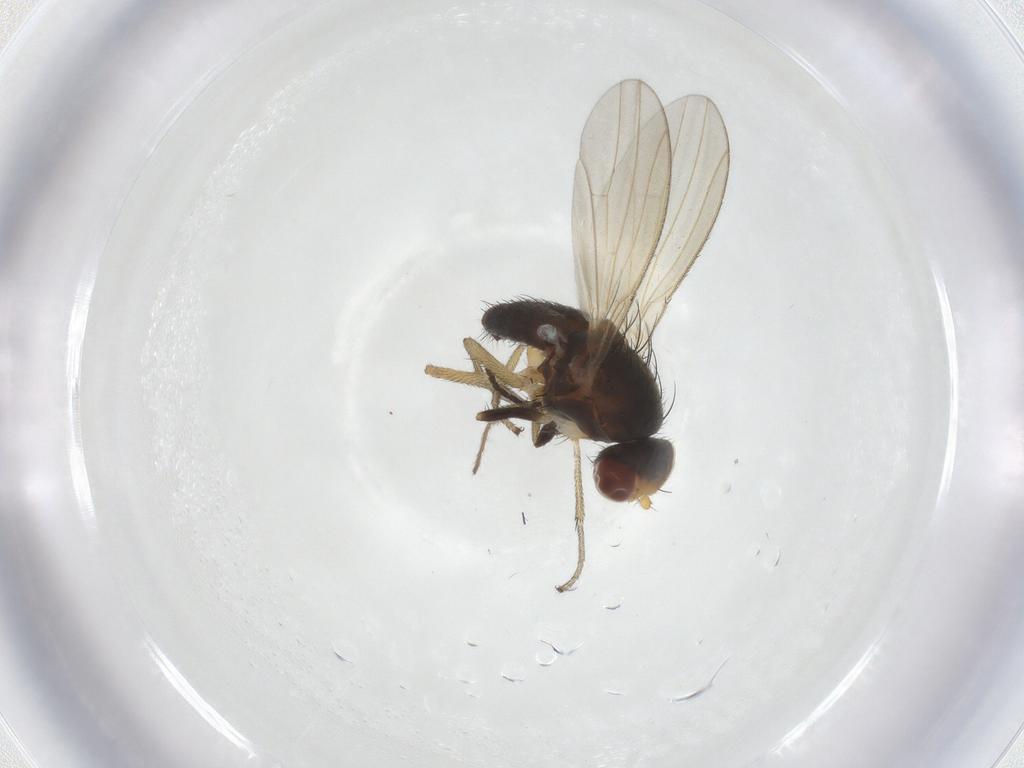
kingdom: Animalia
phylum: Arthropoda
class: Insecta
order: Diptera
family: Heleomyzidae
